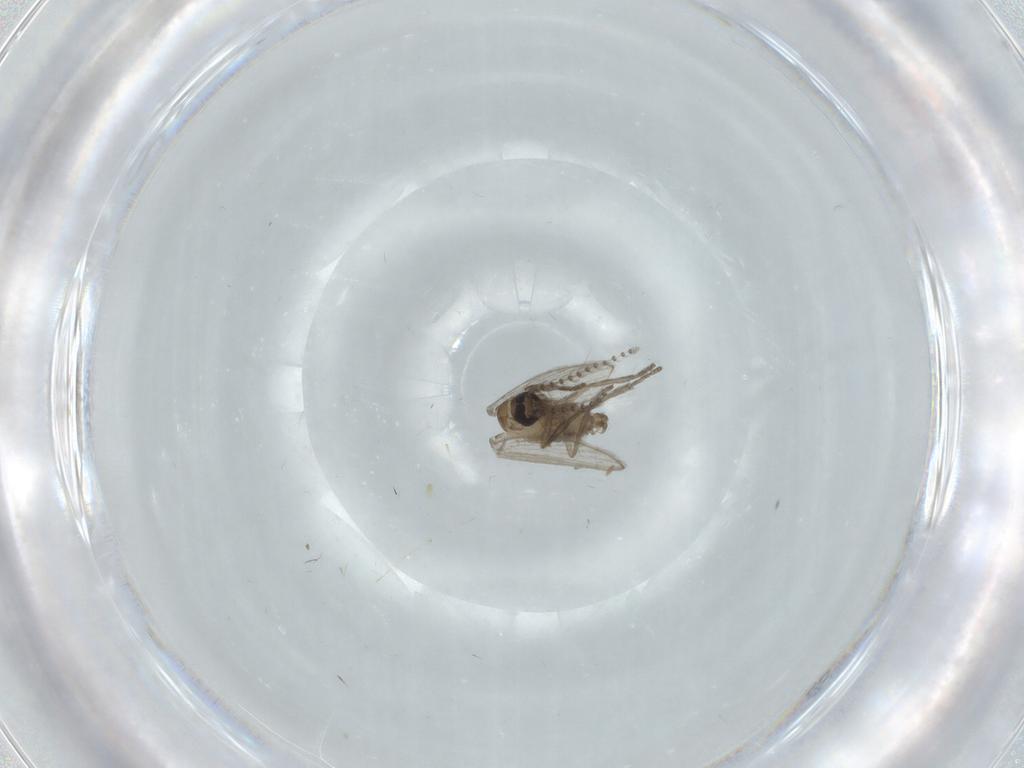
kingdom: Animalia
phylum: Arthropoda
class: Insecta
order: Diptera
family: Psychodidae
